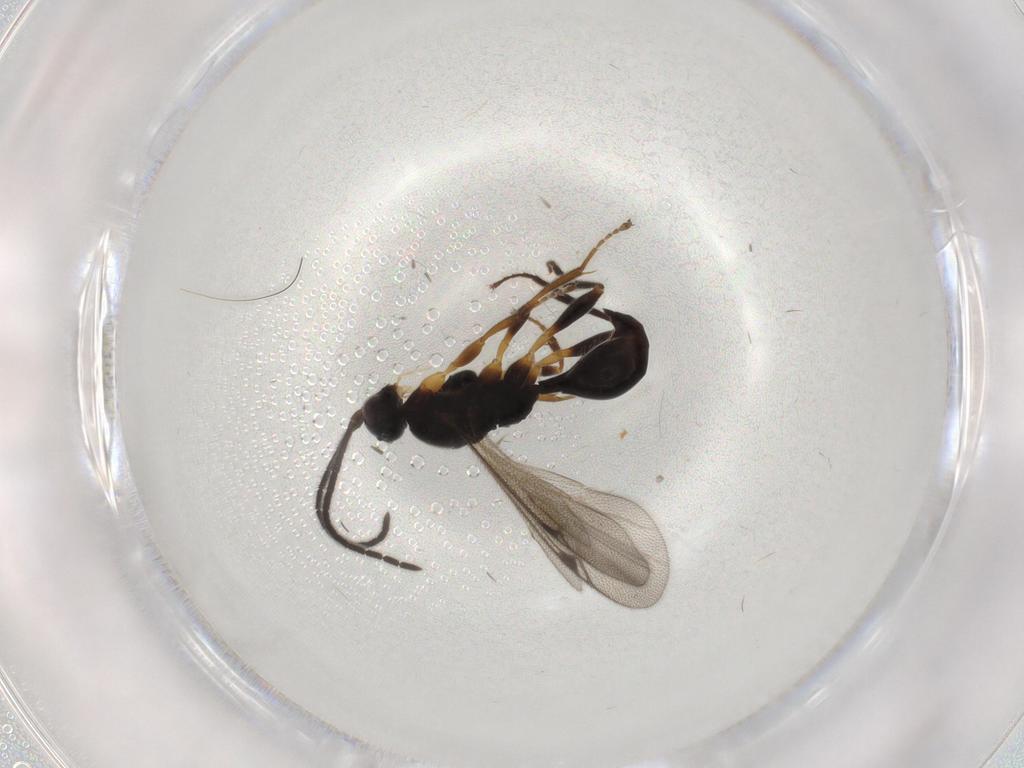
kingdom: Animalia
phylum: Arthropoda
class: Insecta
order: Hymenoptera
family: Proctotrupidae
